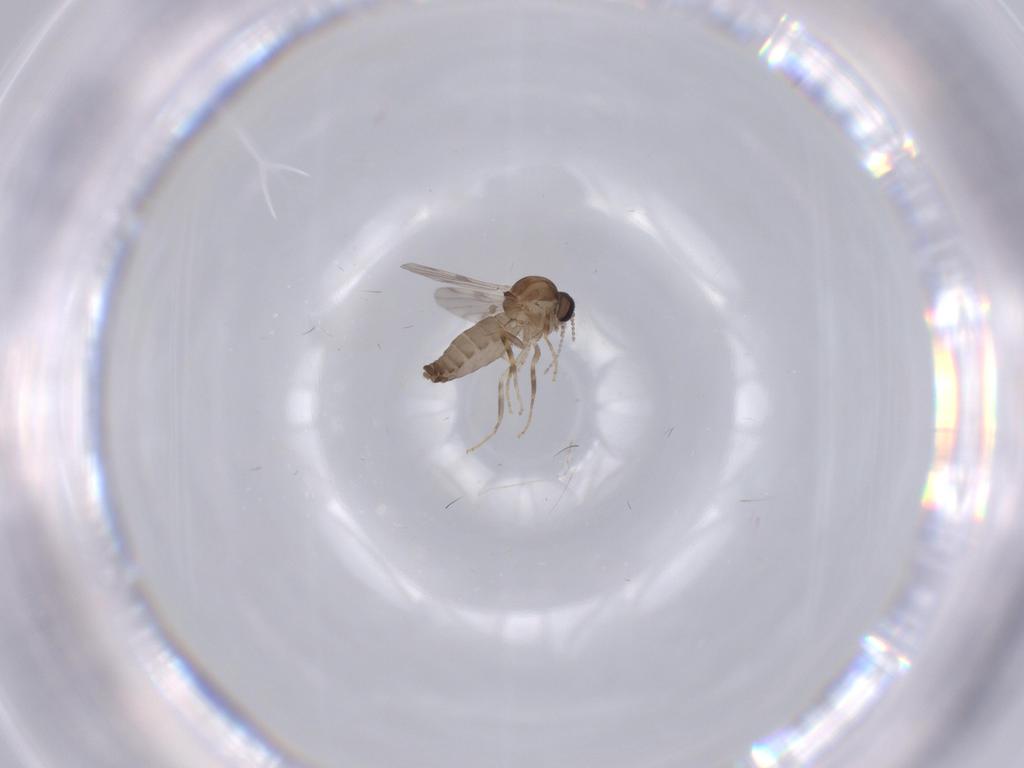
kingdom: Animalia
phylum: Arthropoda
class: Insecta
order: Diptera
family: Ceratopogonidae
